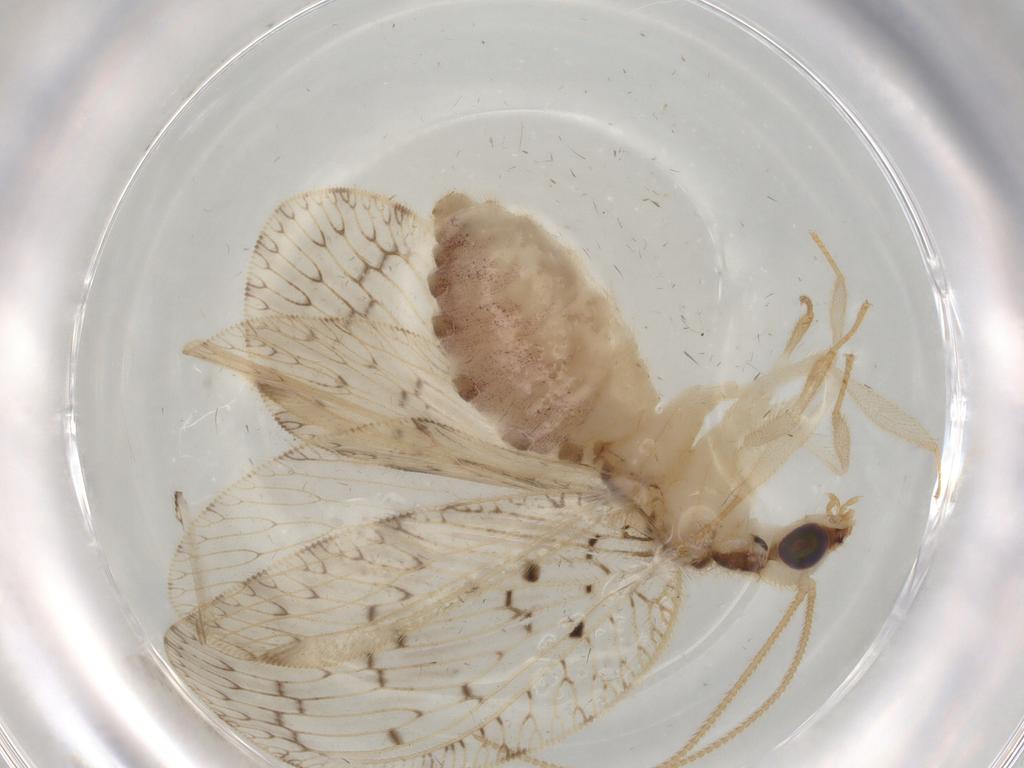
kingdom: Animalia
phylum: Arthropoda
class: Insecta
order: Neuroptera
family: Hemerobiidae
